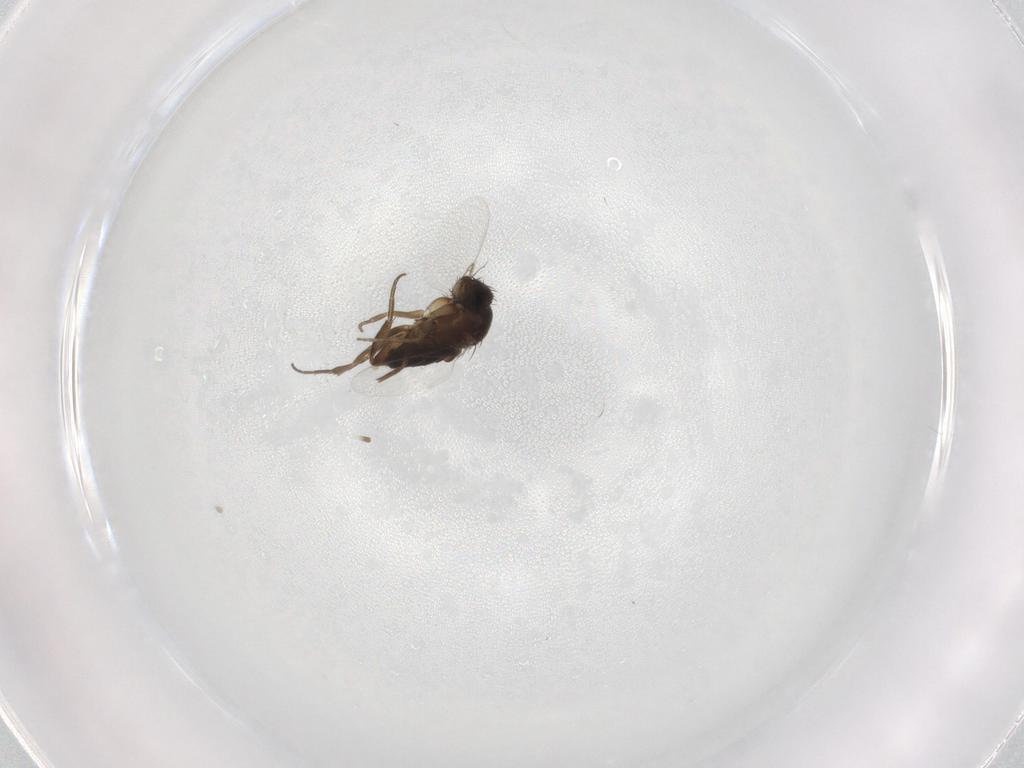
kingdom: Animalia
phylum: Arthropoda
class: Insecta
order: Diptera
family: Phoridae
